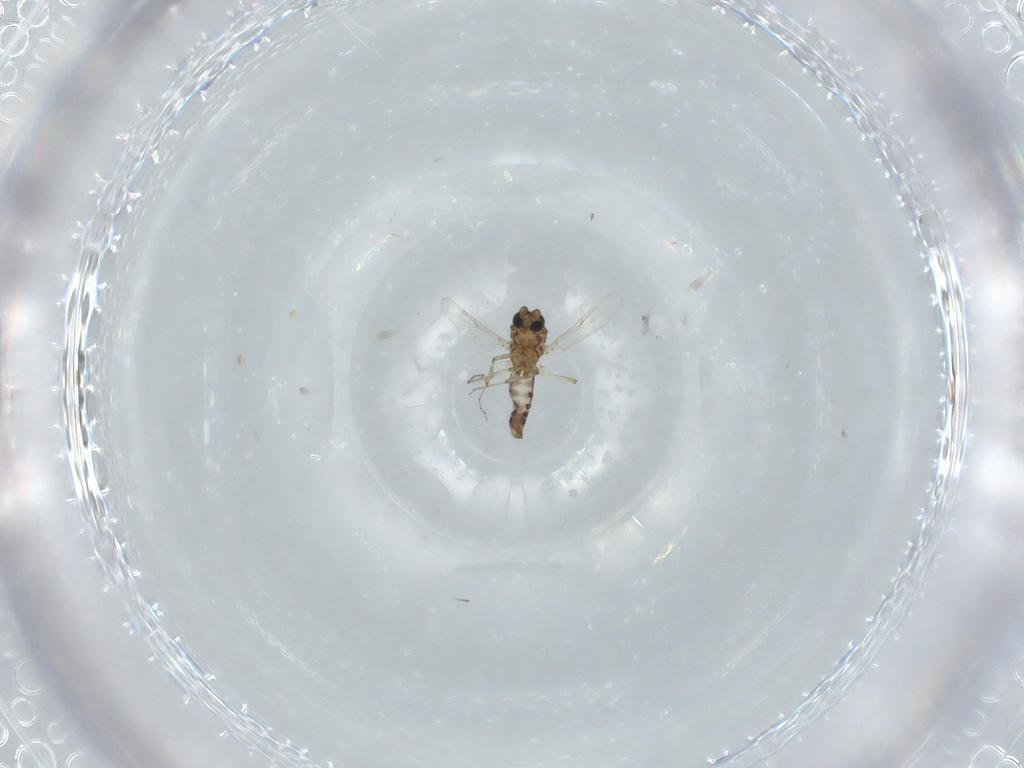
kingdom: Animalia
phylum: Arthropoda
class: Insecta
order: Diptera
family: Ceratopogonidae
